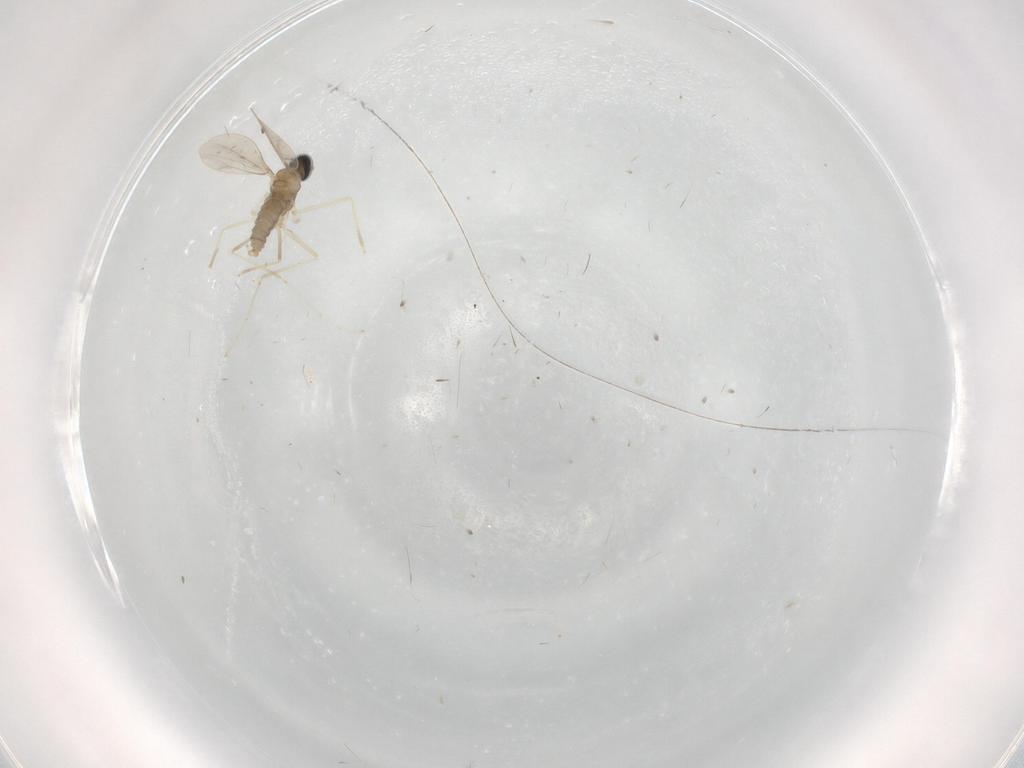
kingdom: Animalia
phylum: Arthropoda
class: Insecta
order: Diptera
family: Cecidomyiidae
